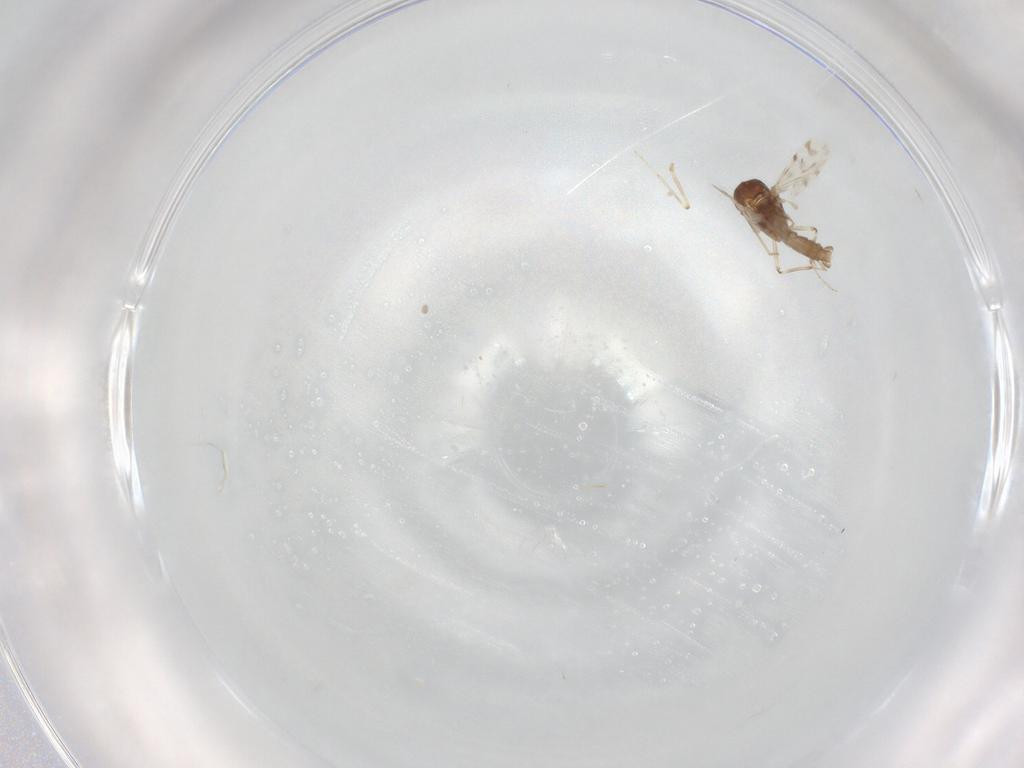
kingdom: Animalia
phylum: Arthropoda
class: Insecta
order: Diptera
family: Ceratopogonidae
